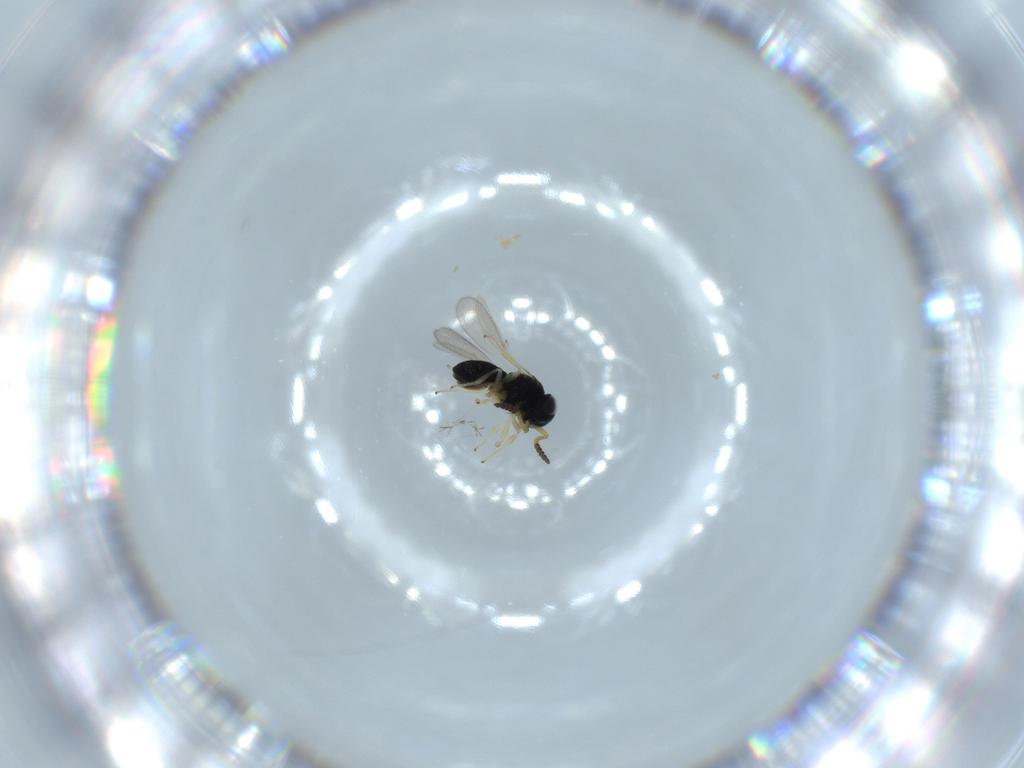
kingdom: Animalia
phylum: Arthropoda
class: Insecta
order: Hymenoptera
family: Scelionidae
